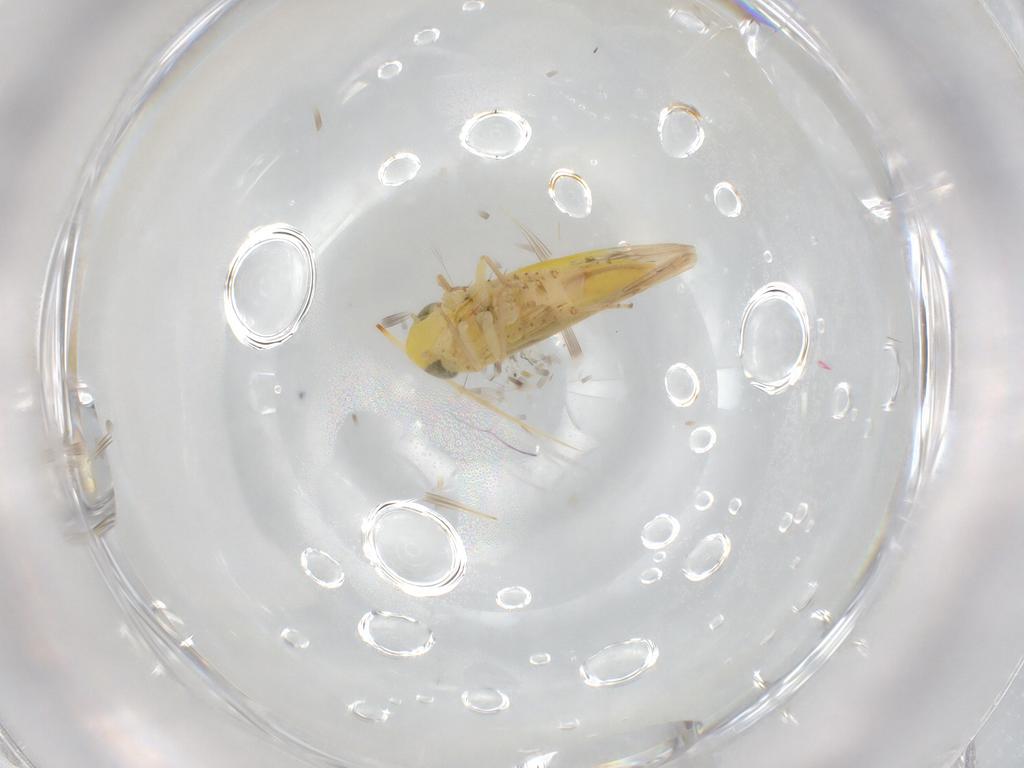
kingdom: Animalia
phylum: Arthropoda
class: Insecta
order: Hemiptera
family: Cicadellidae
